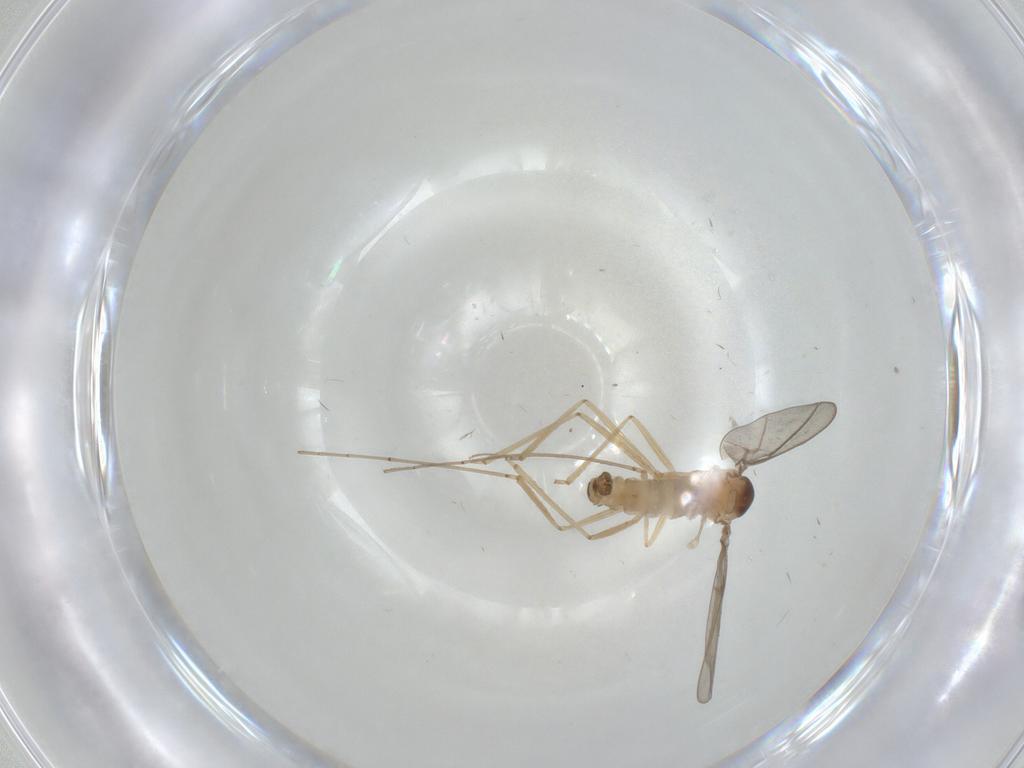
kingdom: Animalia
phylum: Arthropoda
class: Insecta
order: Diptera
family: Cecidomyiidae
